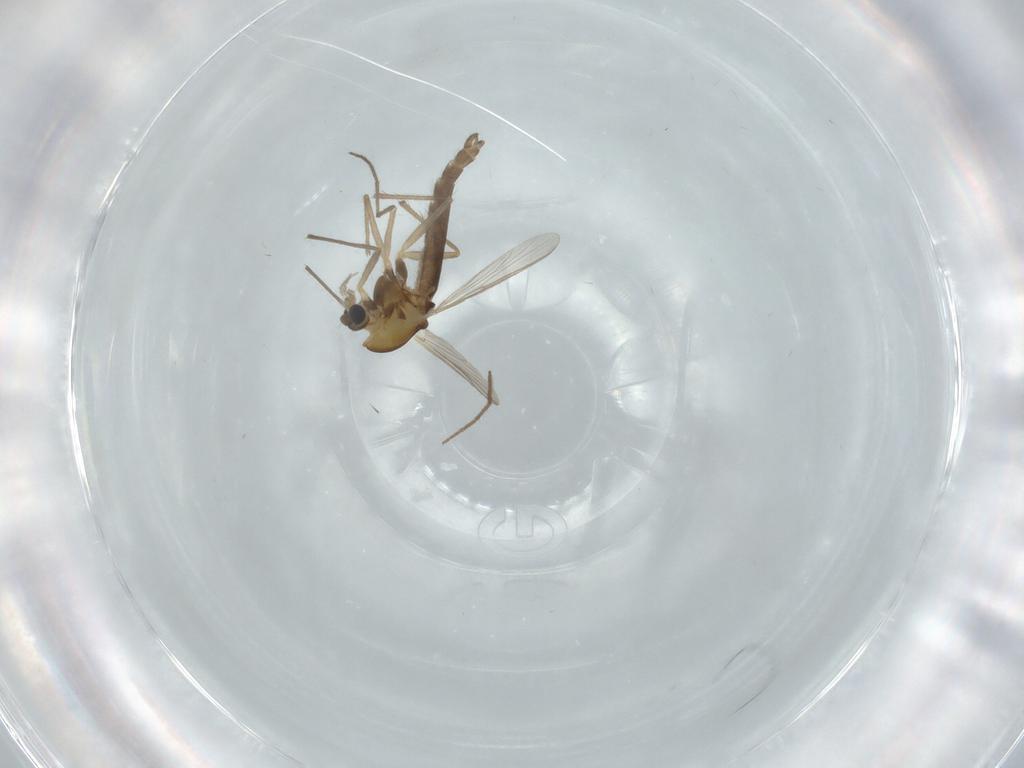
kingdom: Animalia
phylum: Arthropoda
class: Insecta
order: Diptera
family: Chironomidae
